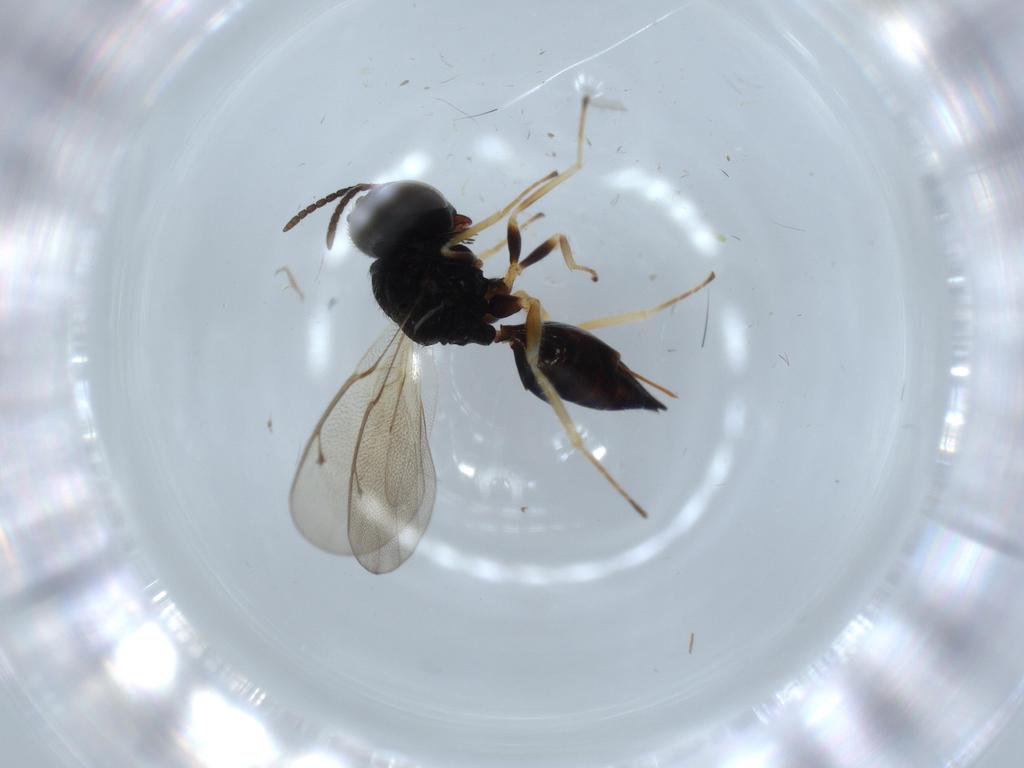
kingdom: Animalia
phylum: Arthropoda
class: Insecta
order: Hymenoptera
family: Pteromalidae
